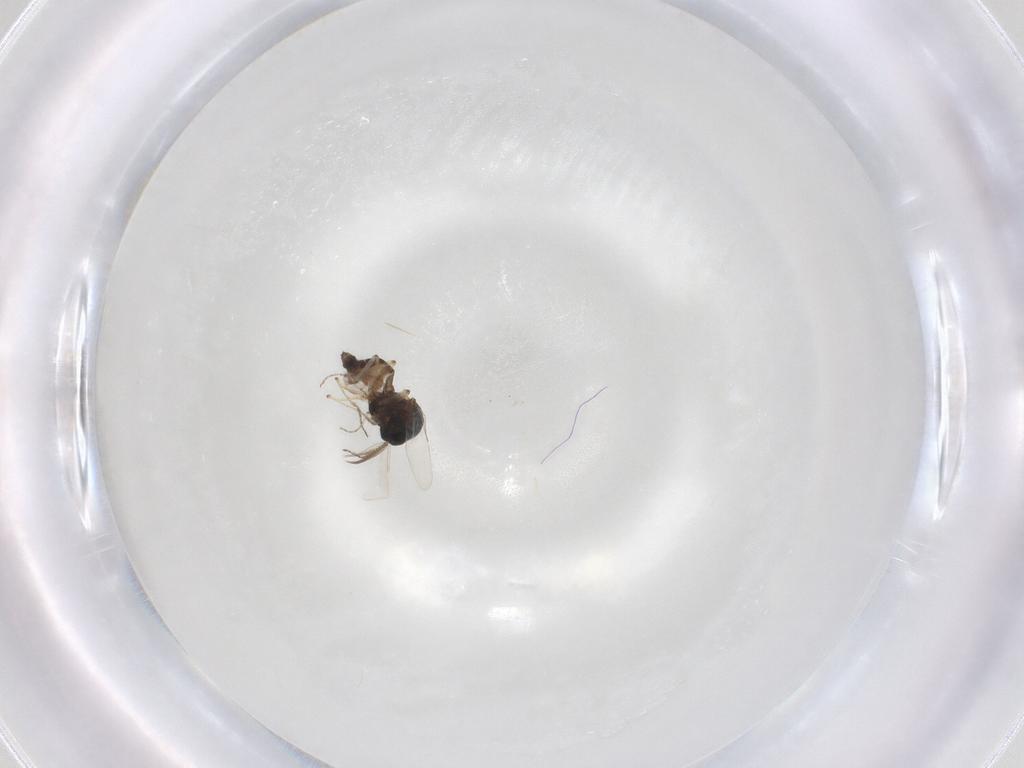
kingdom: Animalia
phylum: Arthropoda
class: Insecta
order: Diptera
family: Ceratopogonidae
